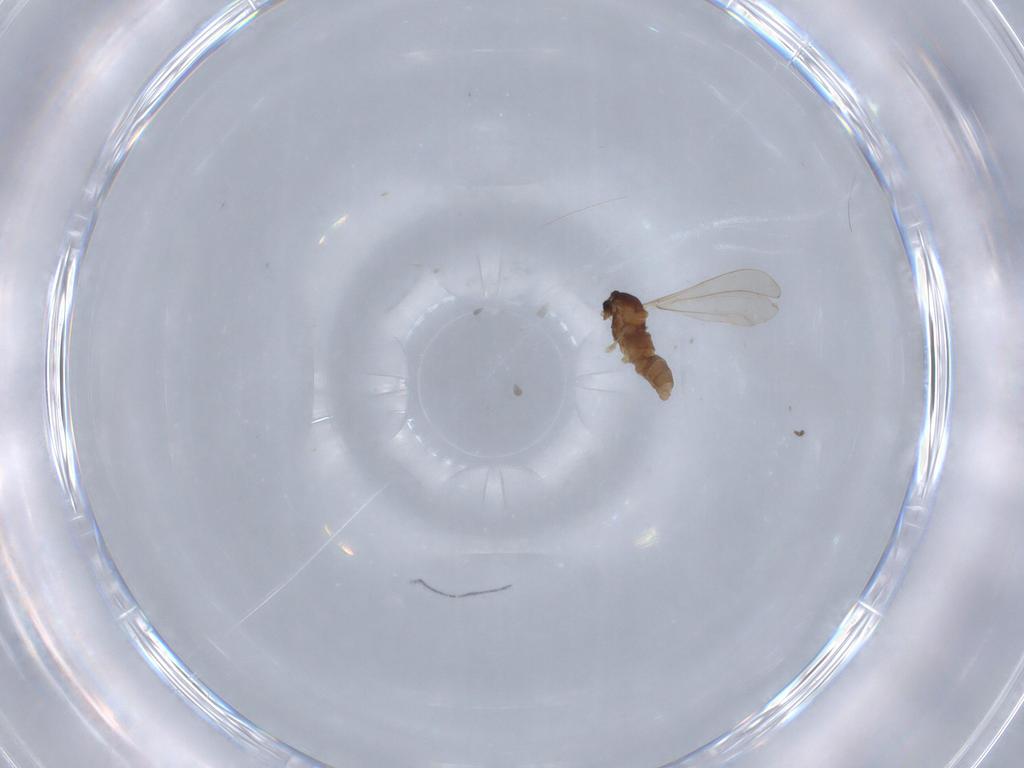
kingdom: Animalia
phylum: Arthropoda
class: Insecta
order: Diptera
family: Cecidomyiidae
